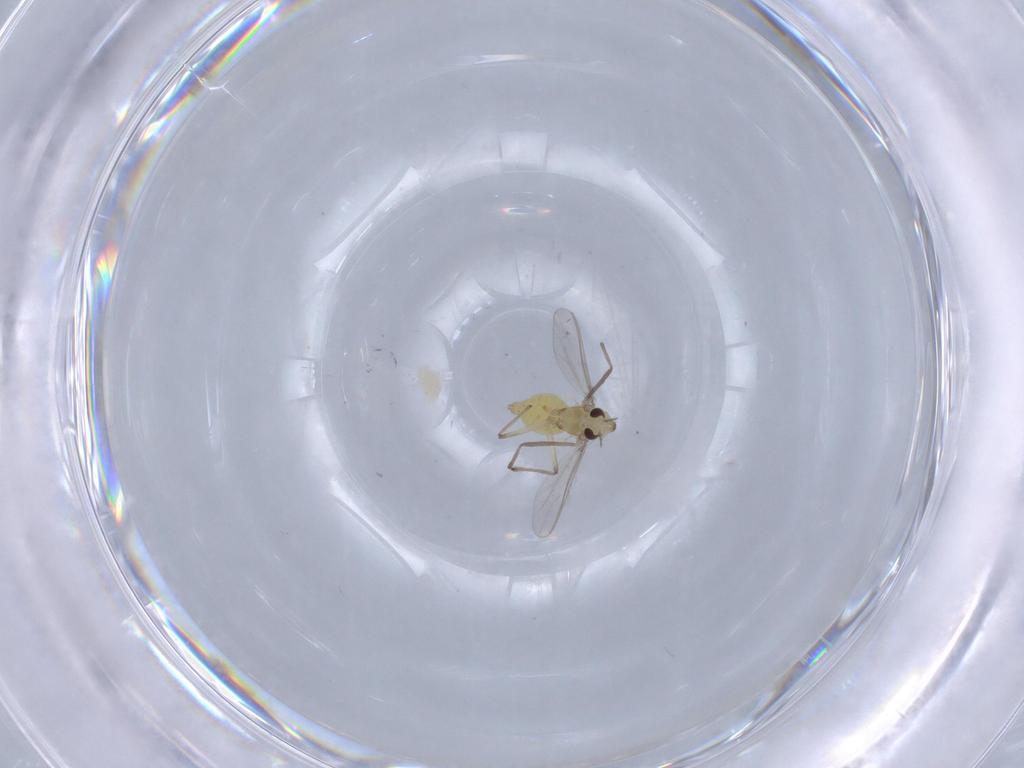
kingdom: Animalia
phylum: Arthropoda
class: Insecta
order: Diptera
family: Chironomidae
